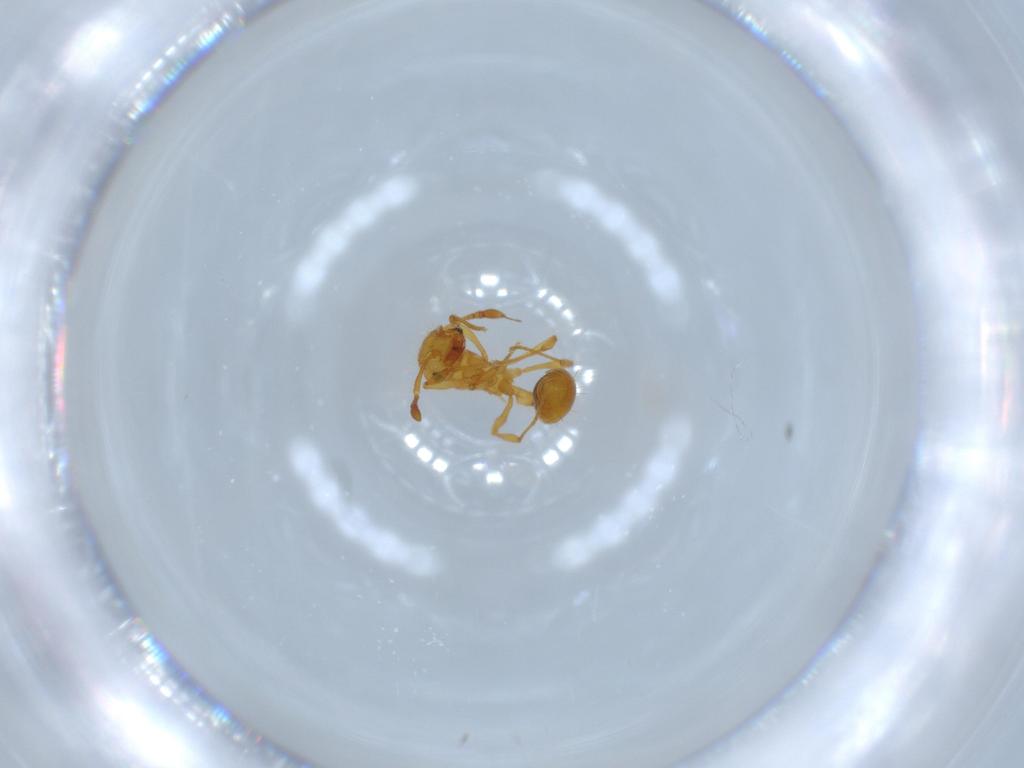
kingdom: Animalia
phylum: Arthropoda
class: Insecta
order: Hymenoptera
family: Formicidae
